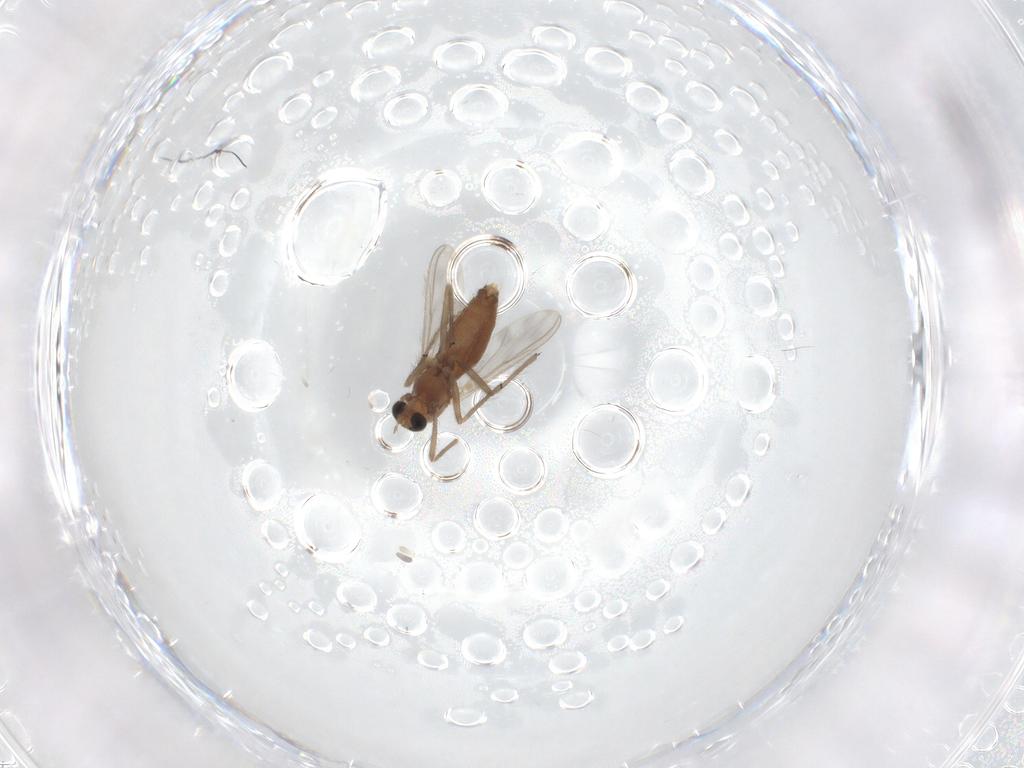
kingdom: Animalia
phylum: Arthropoda
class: Insecta
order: Diptera
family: Chironomidae
